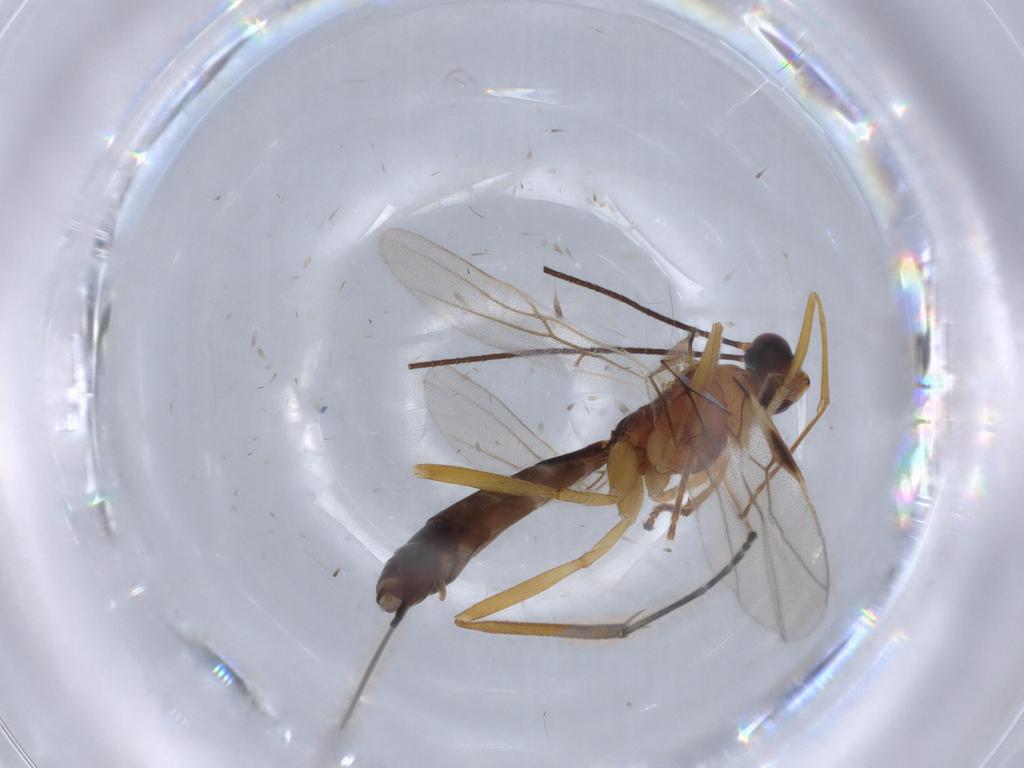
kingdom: Animalia
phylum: Arthropoda
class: Insecta
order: Hymenoptera
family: Braconidae
